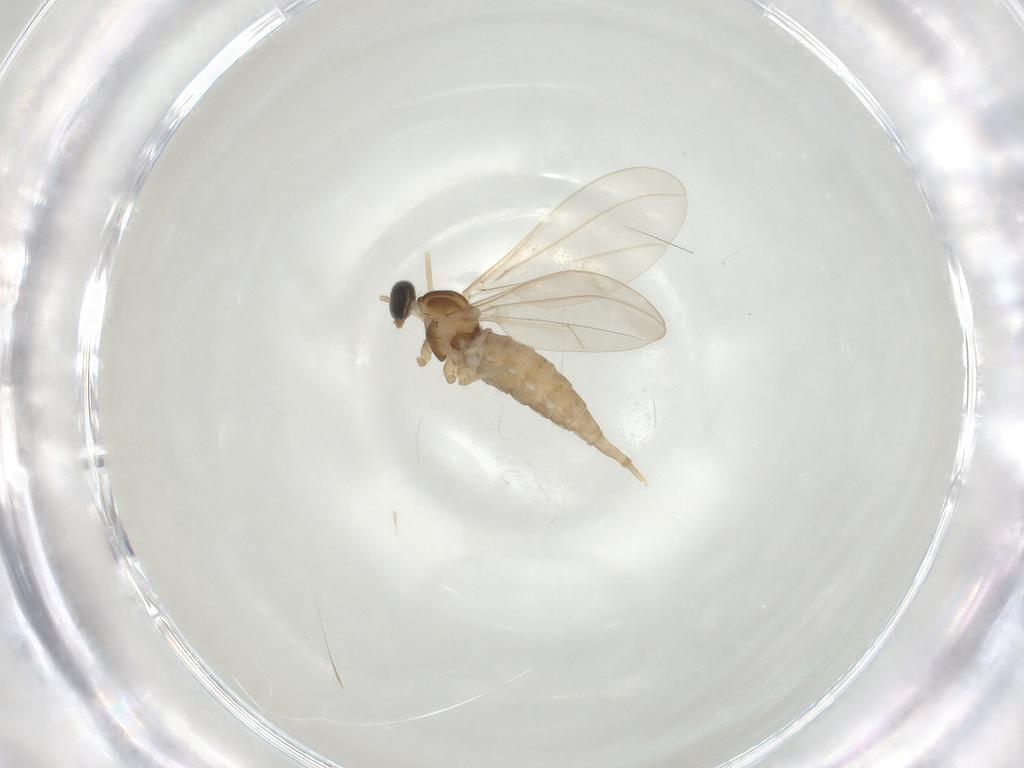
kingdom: Animalia
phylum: Arthropoda
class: Insecta
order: Diptera
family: Cecidomyiidae
